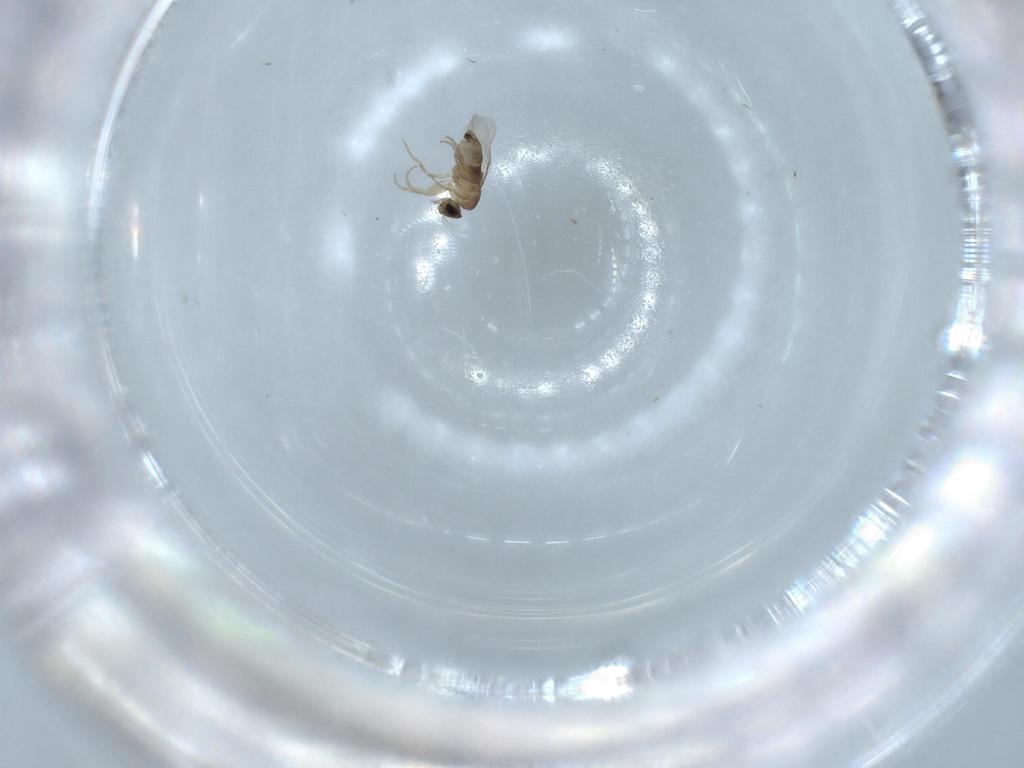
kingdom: Animalia
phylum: Arthropoda
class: Insecta
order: Diptera
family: Phoridae
